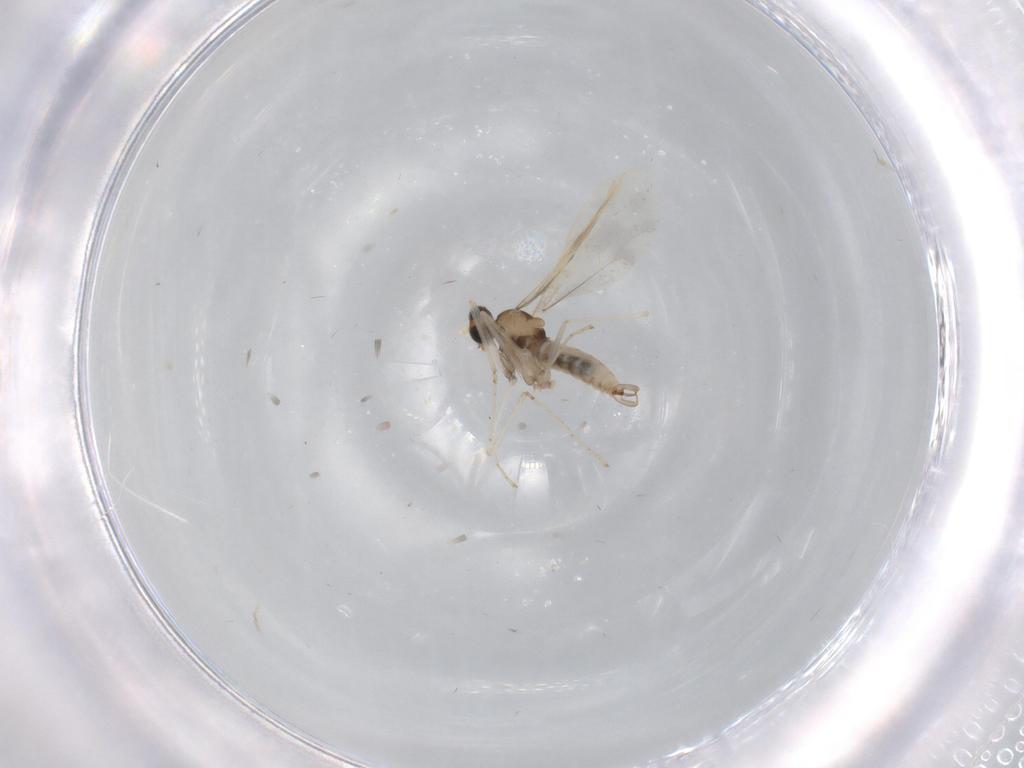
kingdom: Animalia
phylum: Arthropoda
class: Insecta
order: Diptera
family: Cecidomyiidae
